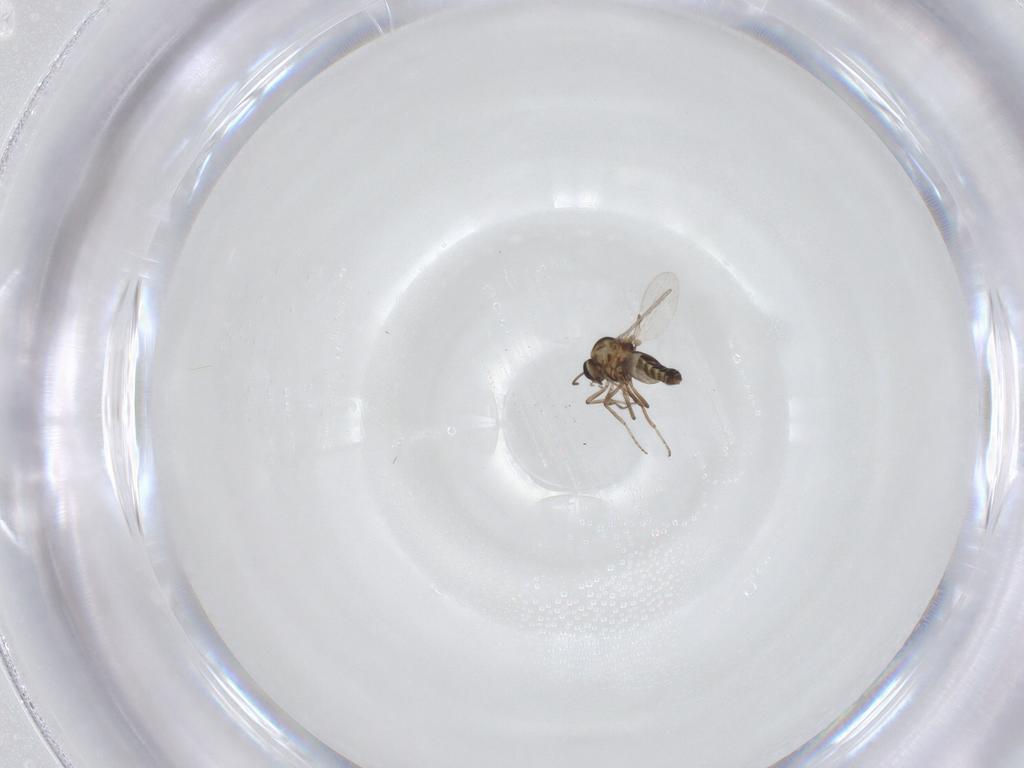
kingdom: Animalia
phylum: Arthropoda
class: Insecta
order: Diptera
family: Ceratopogonidae
